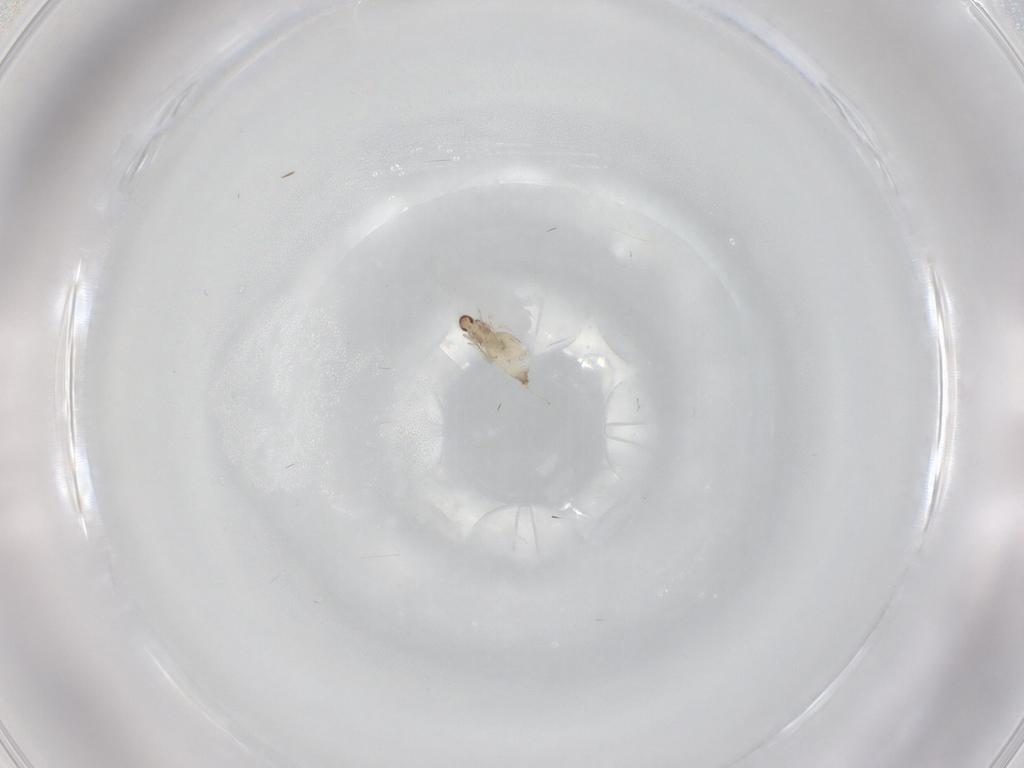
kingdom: Animalia
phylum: Arthropoda
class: Insecta
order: Diptera
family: Cecidomyiidae
